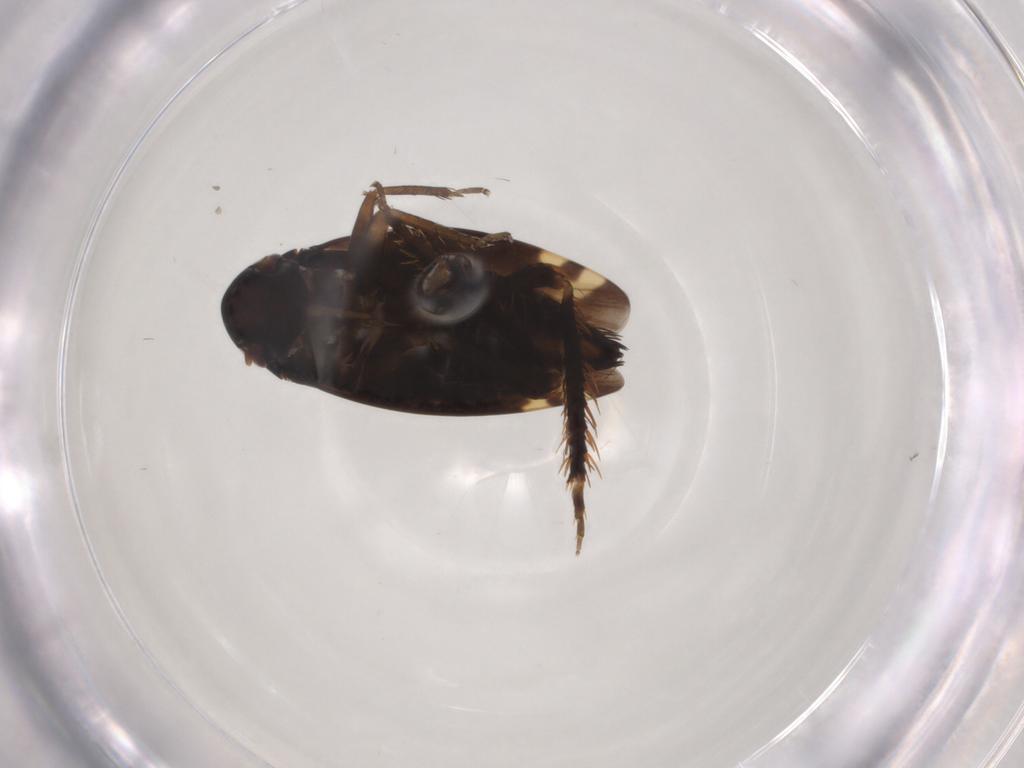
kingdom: Animalia
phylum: Arthropoda
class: Insecta
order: Hemiptera
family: Cicadellidae
